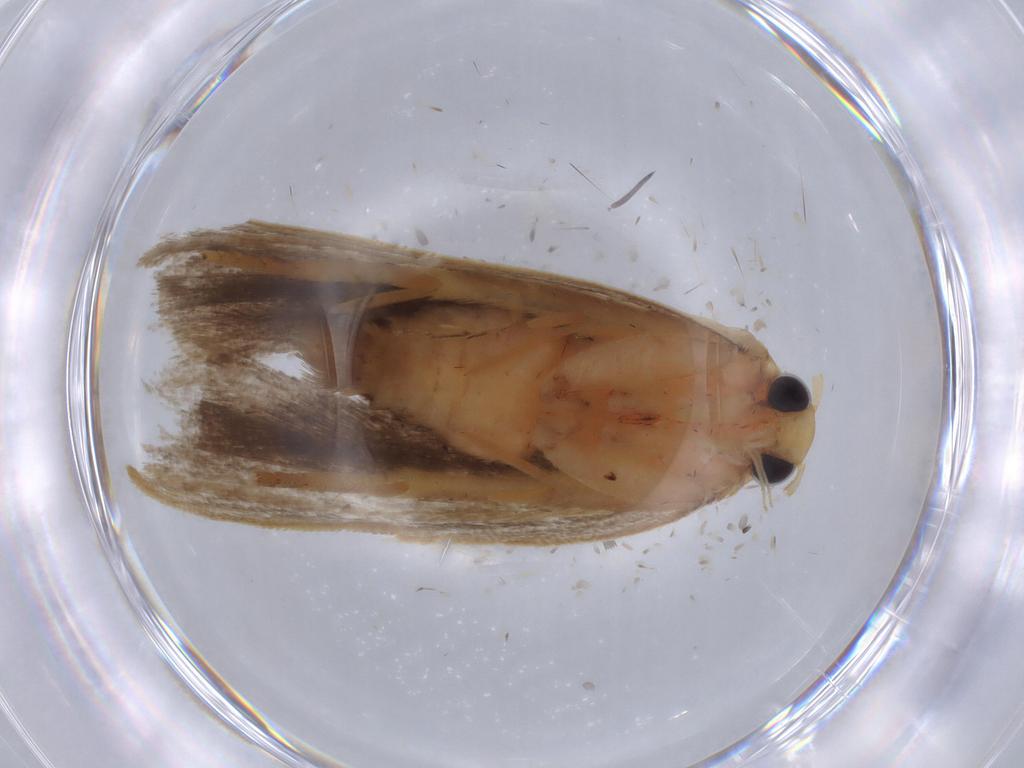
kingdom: Animalia
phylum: Arthropoda
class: Insecta
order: Lepidoptera
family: Depressariidae
